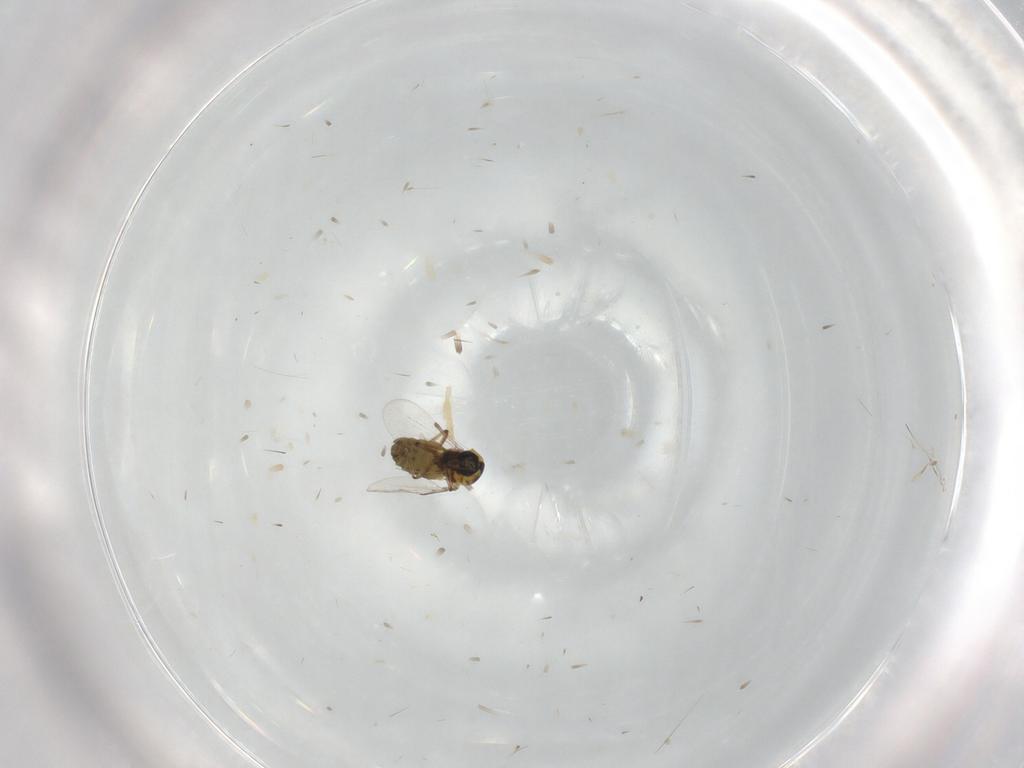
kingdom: Animalia
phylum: Arthropoda
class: Insecta
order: Diptera
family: Ceratopogonidae
